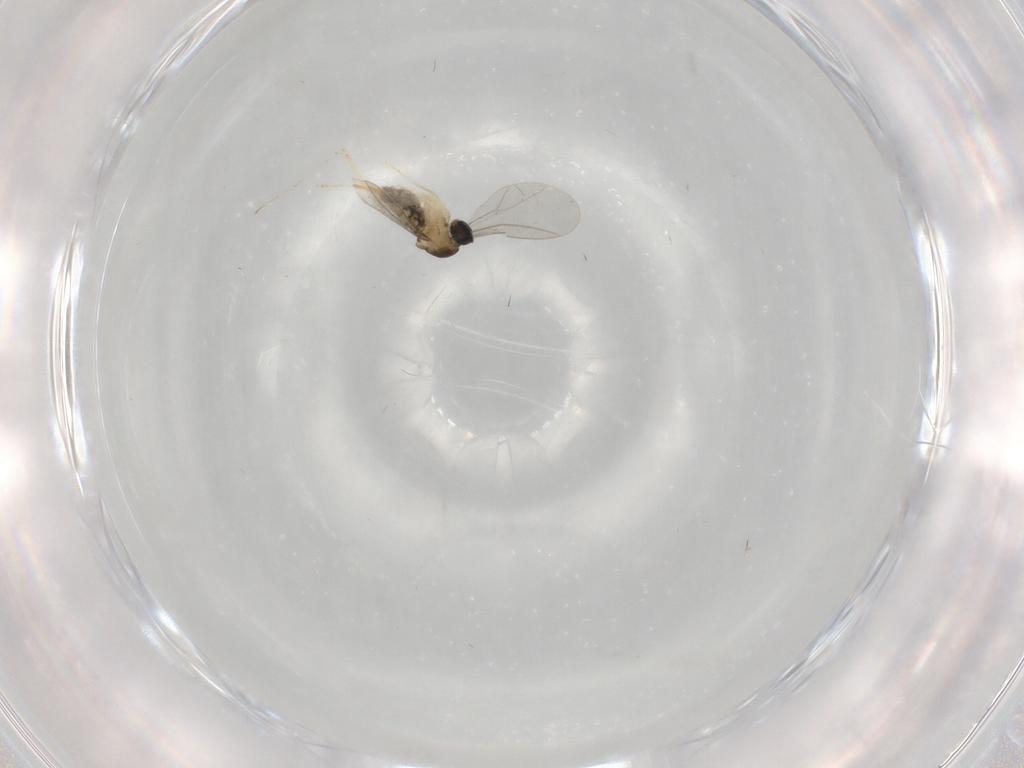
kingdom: Animalia
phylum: Arthropoda
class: Insecta
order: Diptera
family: Cecidomyiidae
